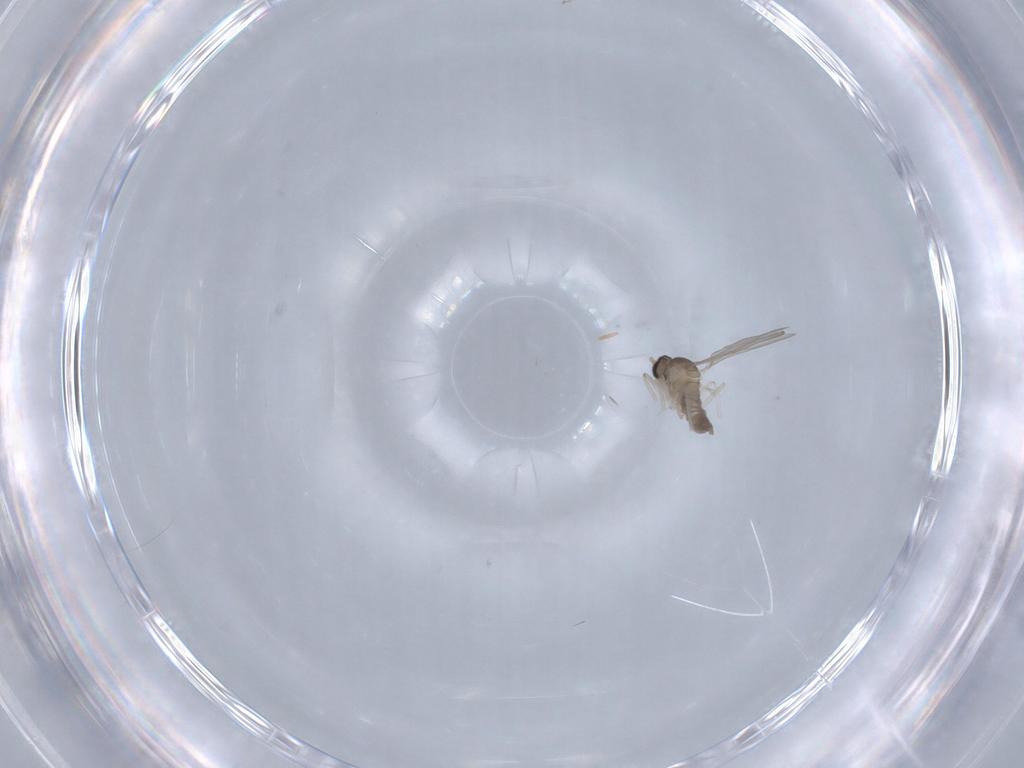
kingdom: Animalia
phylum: Arthropoda
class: Insecta
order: Diptera
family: Cecidomyiidae
